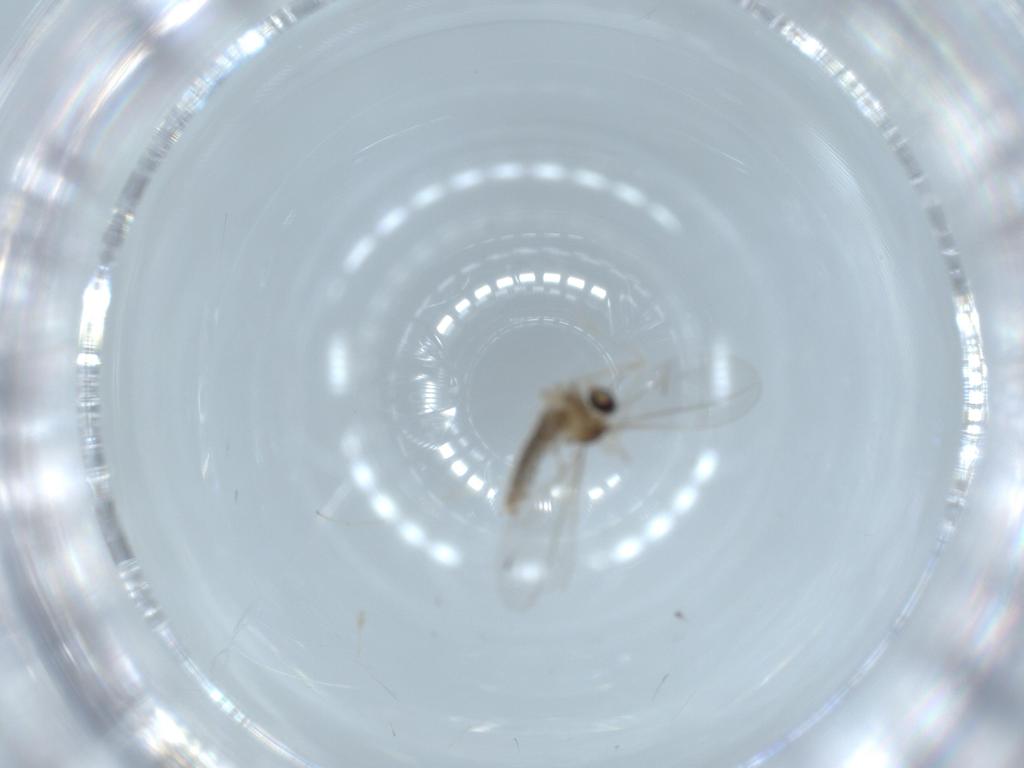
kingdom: Animalia
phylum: Arthropoda
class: Insecta
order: Diptera
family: Cecidomyiidae
